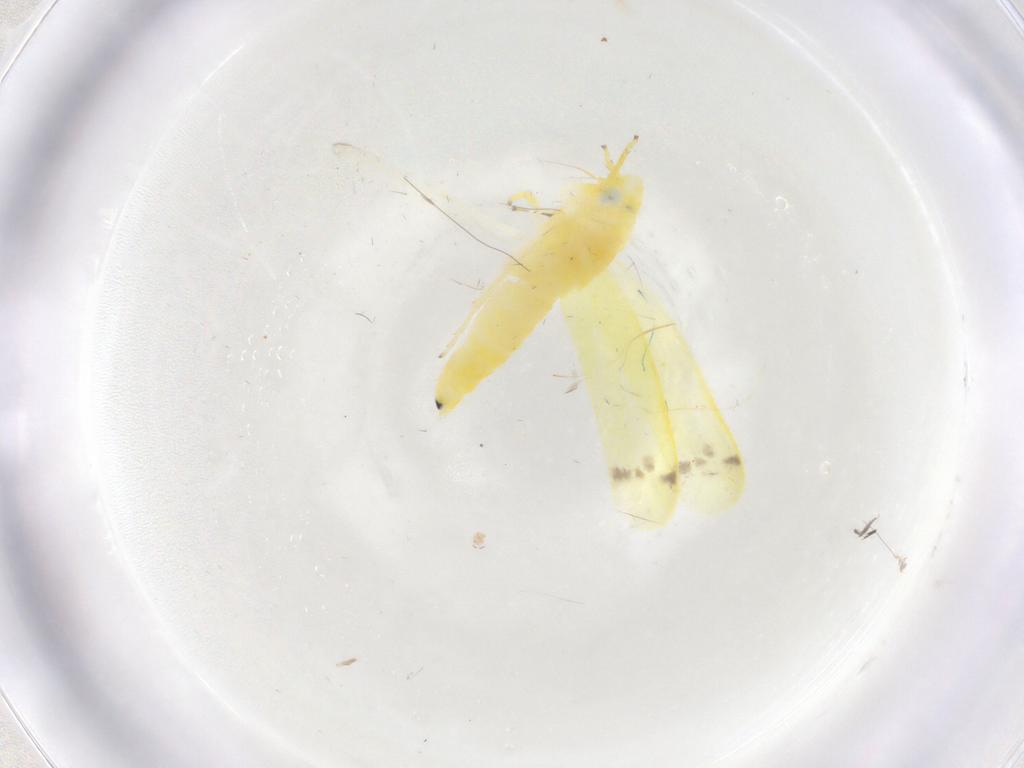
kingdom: Animalia
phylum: Arthropoda
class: Insecta
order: Hemiptera
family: Cicadellidae
